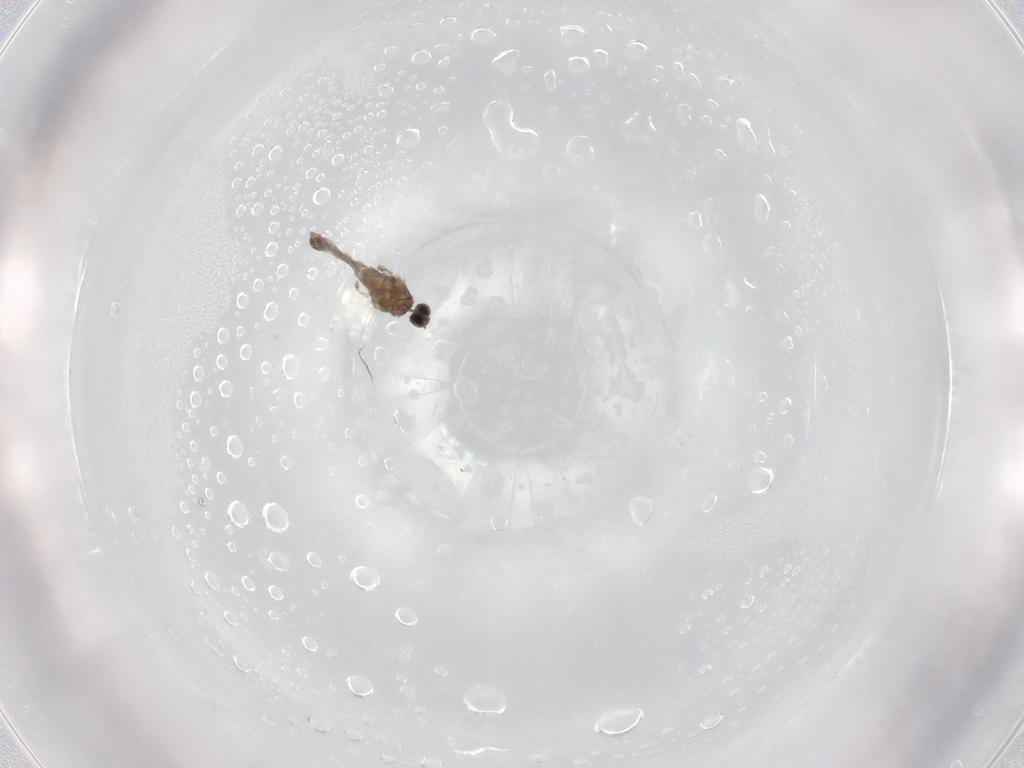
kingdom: Animalia
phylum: Arthropoda
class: Insecta
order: Diptera
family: Cecidomyiidae
